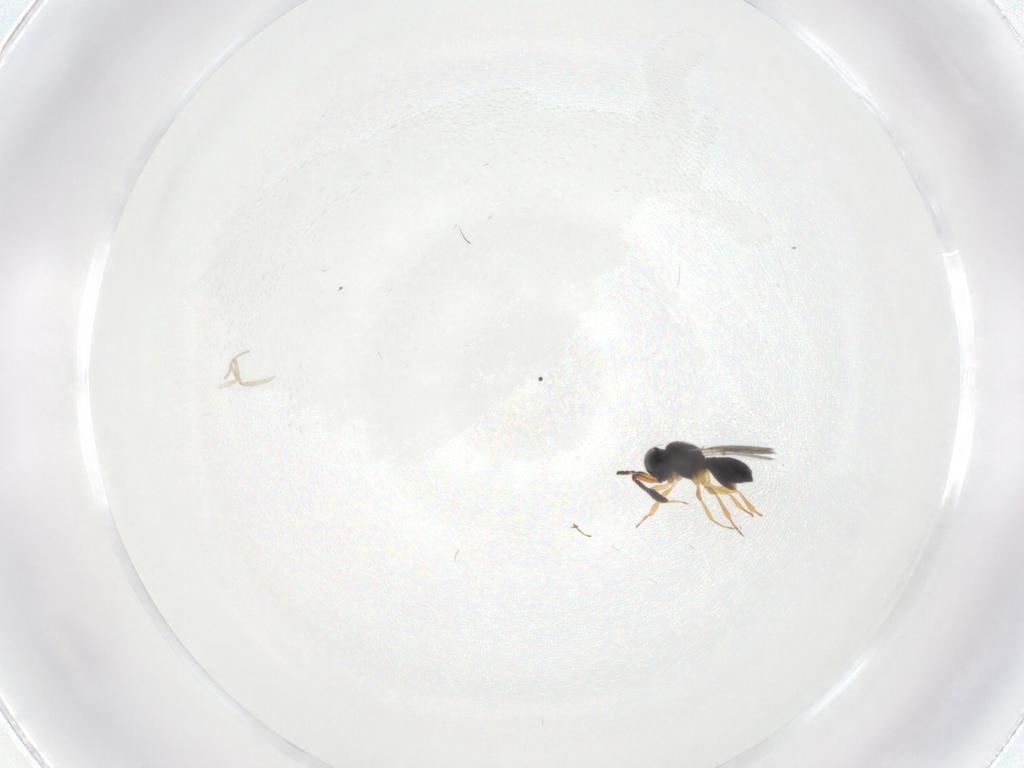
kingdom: Animalia
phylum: Arthropoda
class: Insecta
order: Hymenoptera
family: Scelionidae
